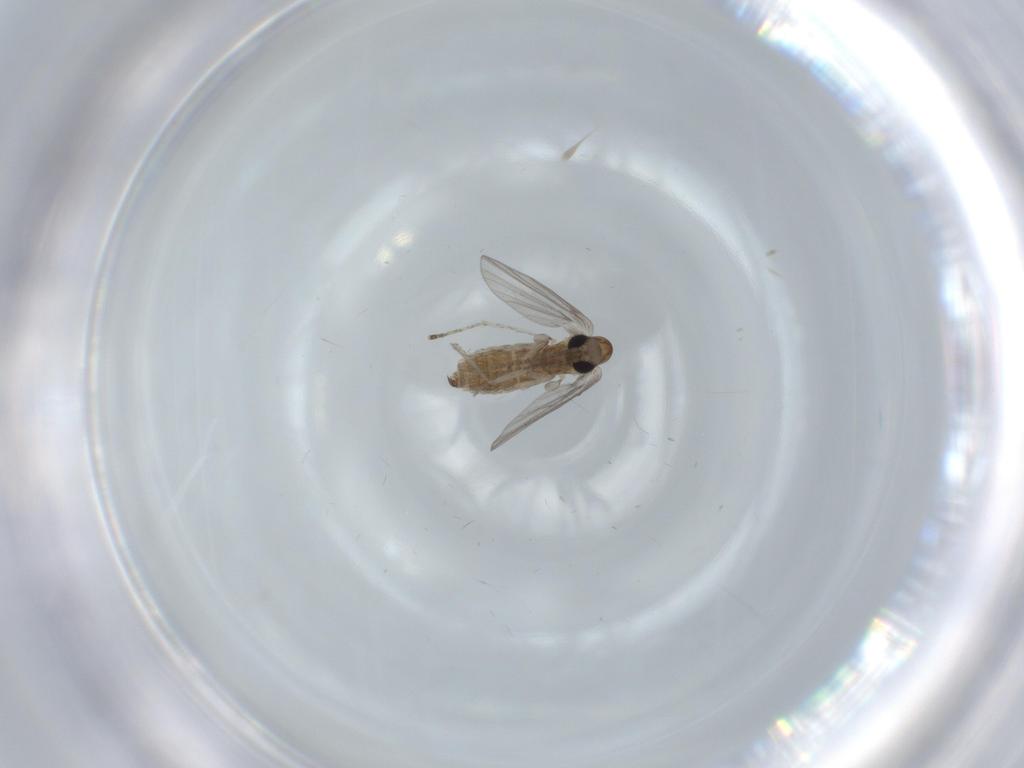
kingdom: Animalia
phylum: Arthropoda
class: Insecta
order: Diptera
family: Psychodidae
